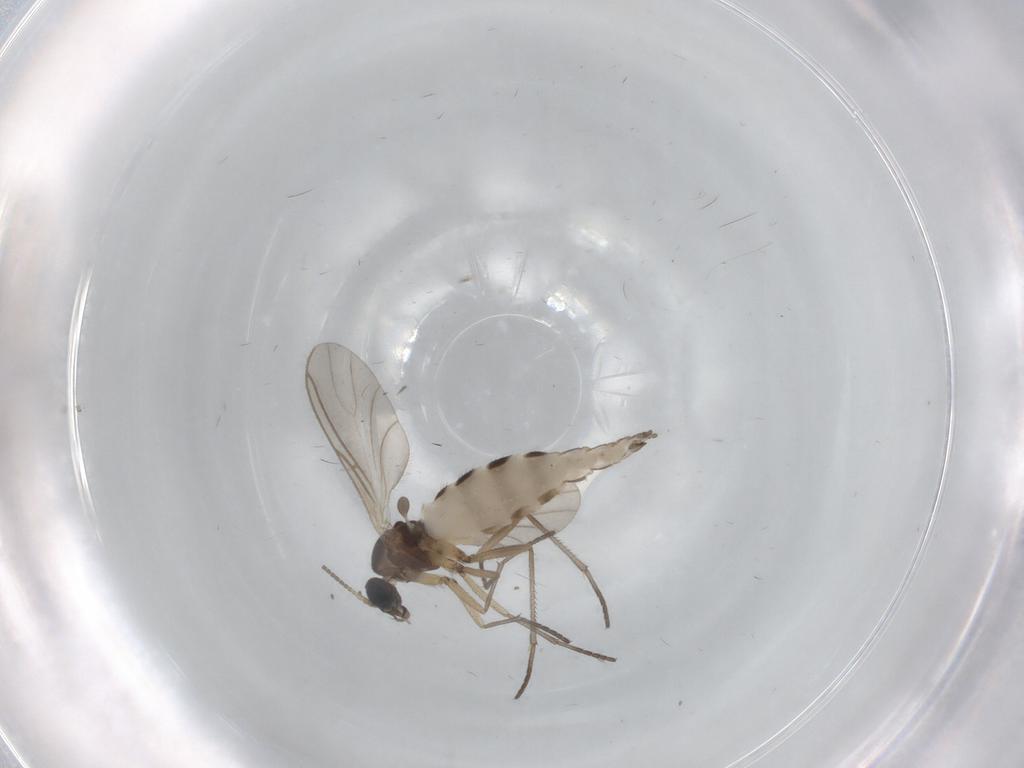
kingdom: Animalia
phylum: Arthropoda
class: Insecta
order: Diptera
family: Sciaridae
